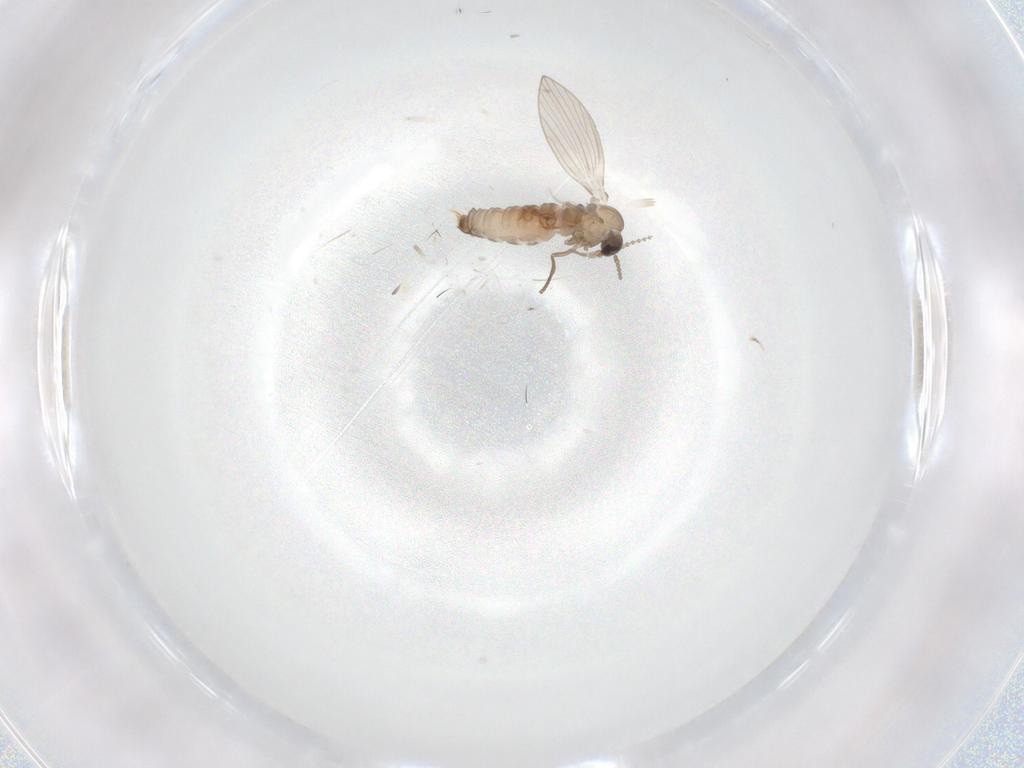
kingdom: Animalia
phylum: Arthropoda
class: Insecta
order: Diptera
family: Psychodidae
